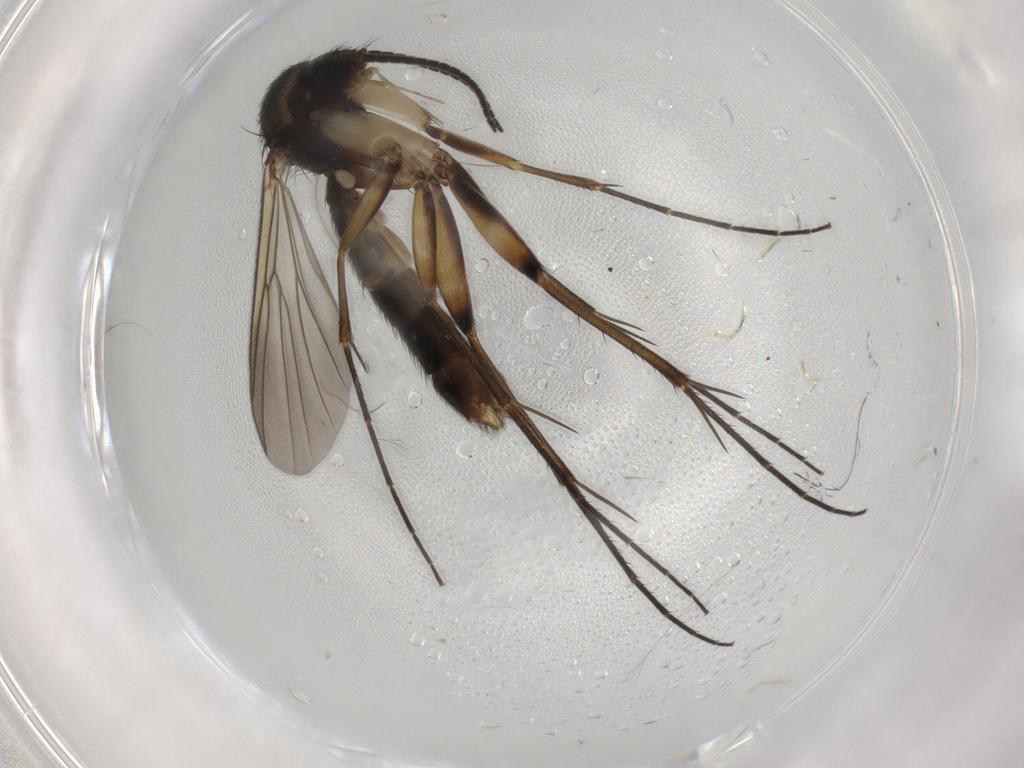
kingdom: Animalia
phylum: Arthropoda
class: Insecta
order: Diptera
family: Mycetophilidae
